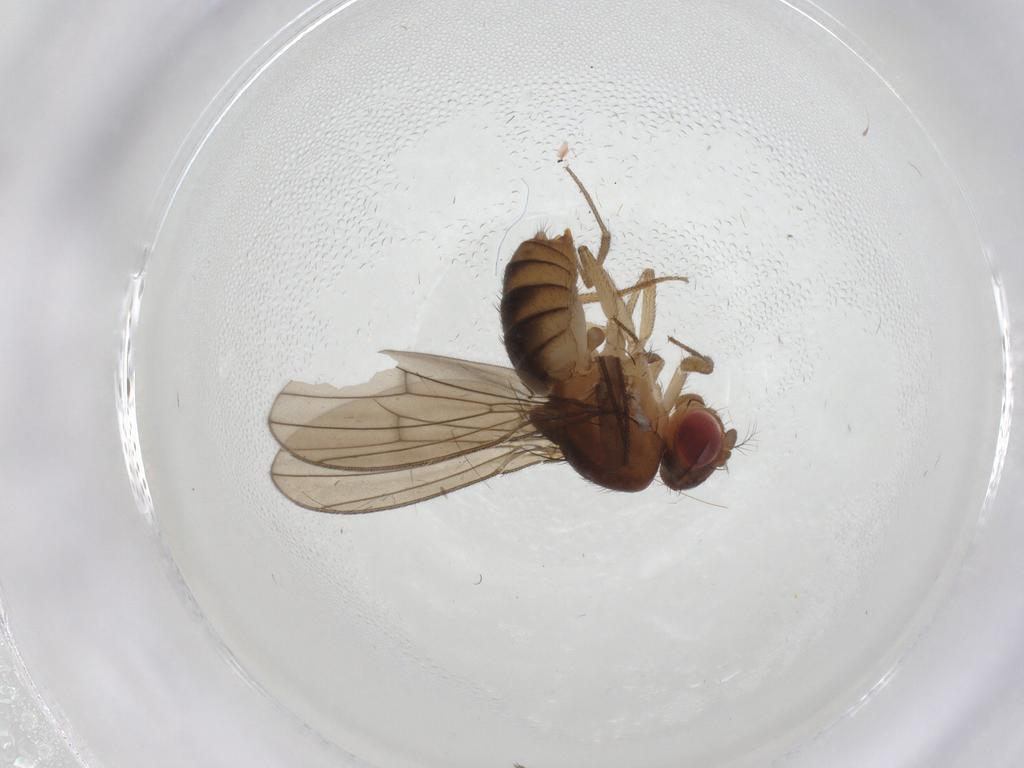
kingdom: Animalia
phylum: Arthropoda
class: Insecta
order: Diptera
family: Drosophilidae
